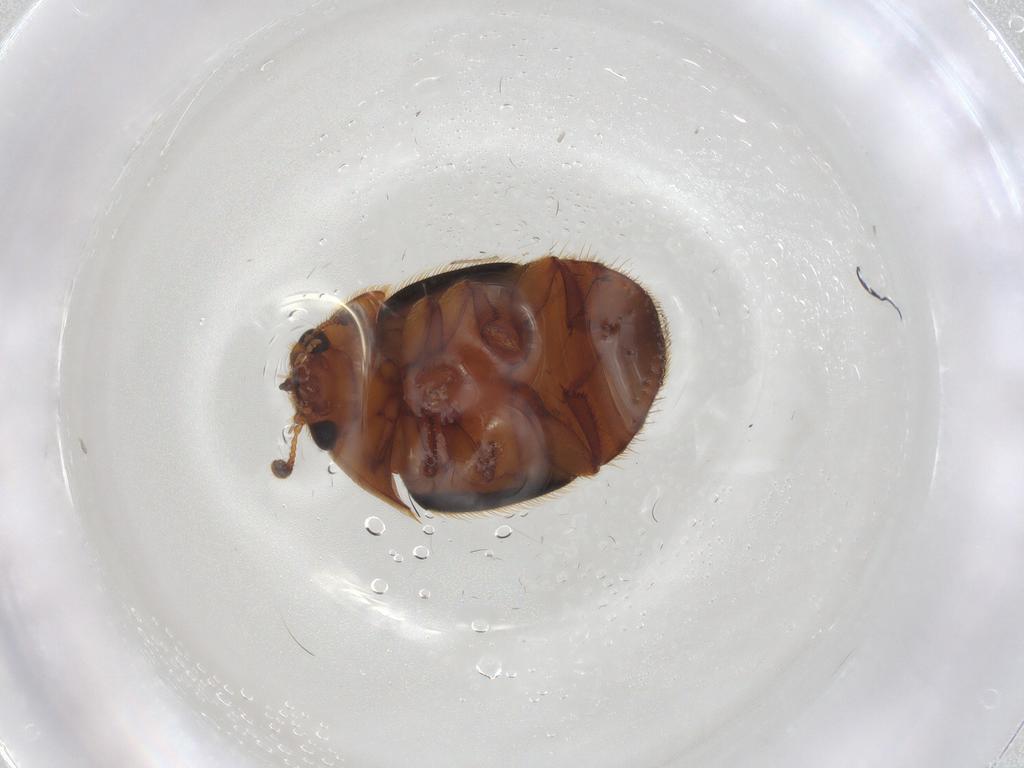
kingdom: Animalia
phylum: Arthropoda
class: Insecta
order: Coleoptera
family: Nitidulidae
